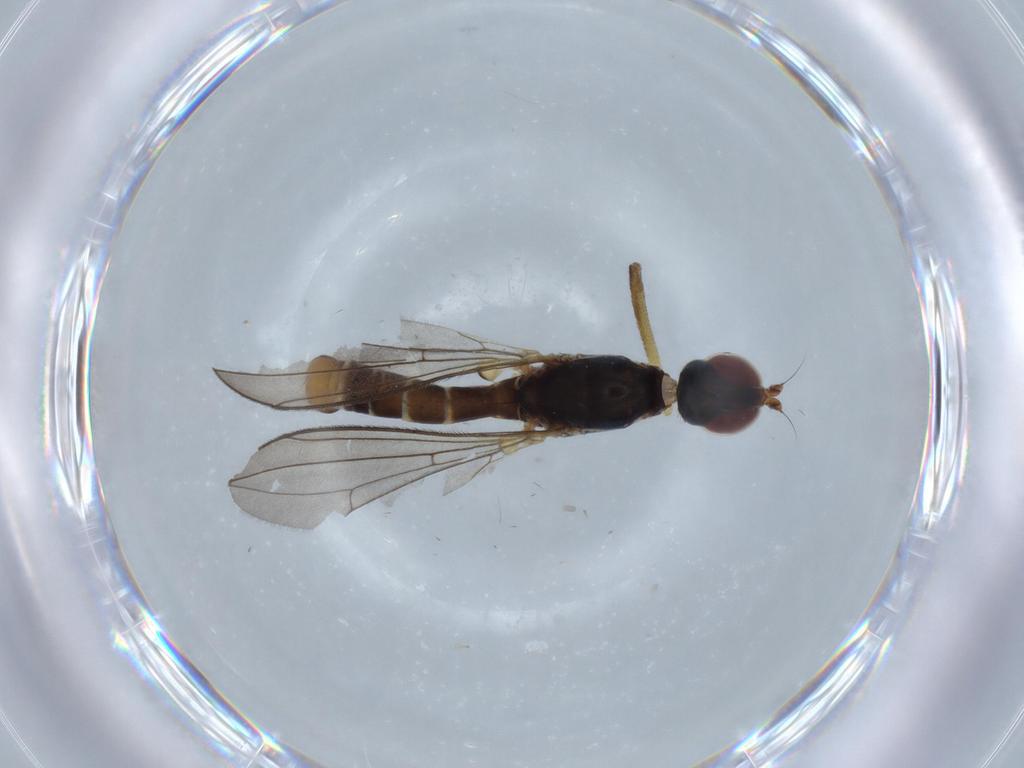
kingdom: Animalia
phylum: Arthropoda
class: Insecta
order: Diptera
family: Micropezidae
